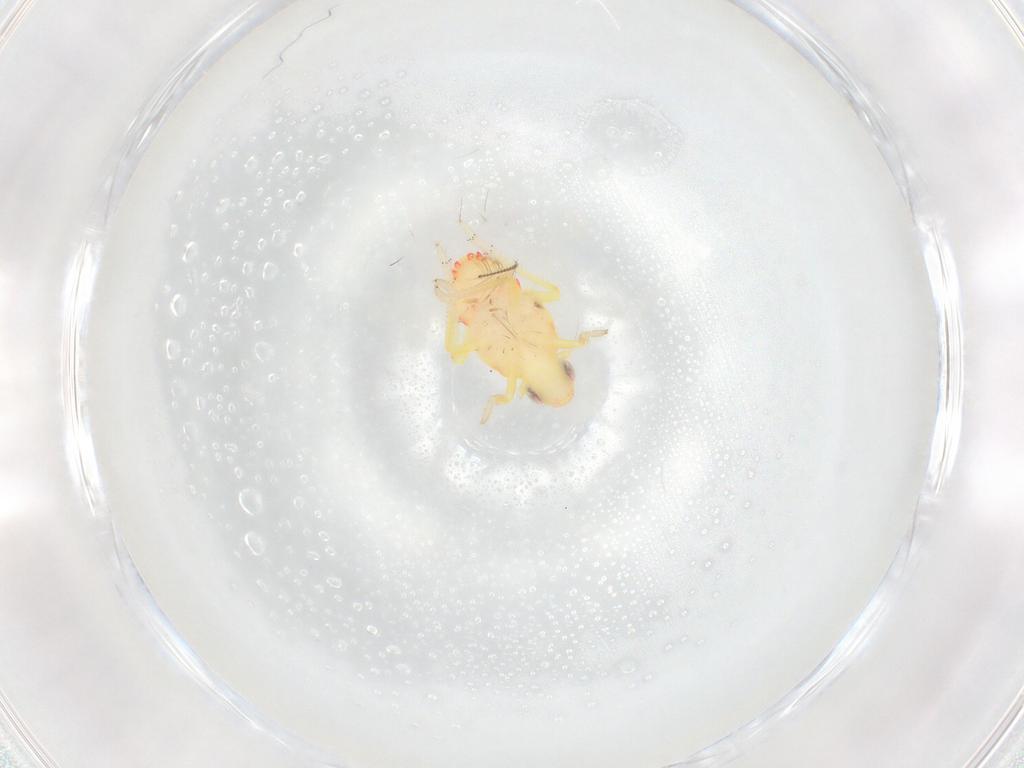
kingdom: Animalia
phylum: Arthropoda
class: Insecta
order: Hemiptera
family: Tropiduchidae
